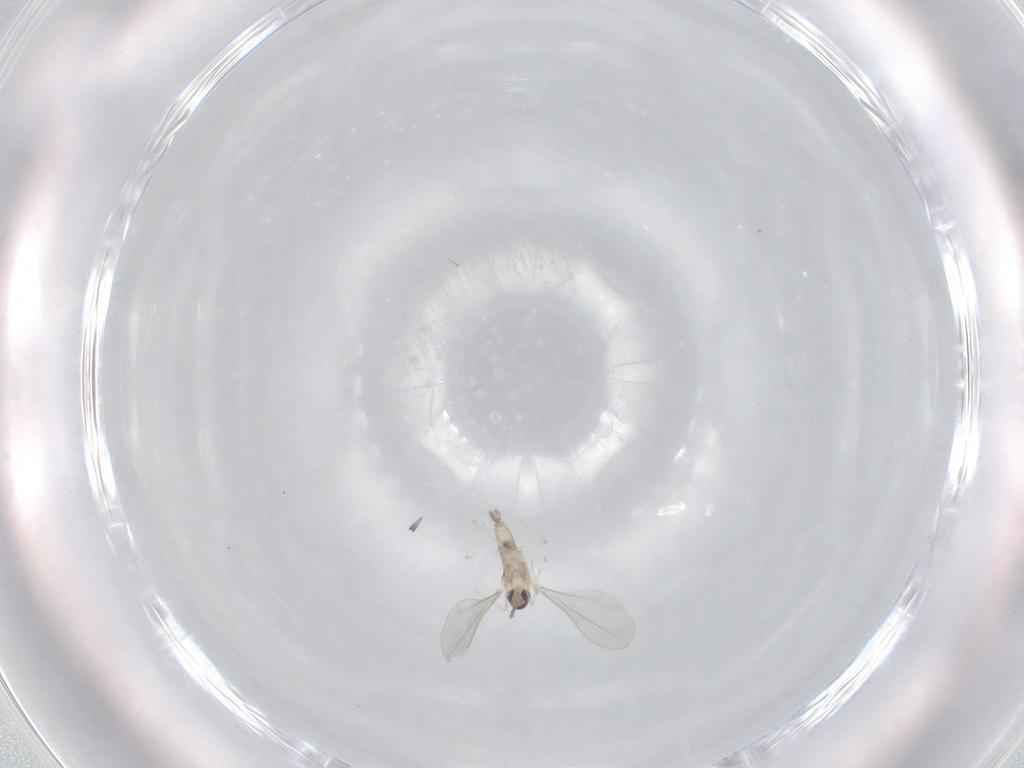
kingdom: Animalia
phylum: Arthropoda
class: Insecta
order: Diptera
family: Cecidomyiidae
